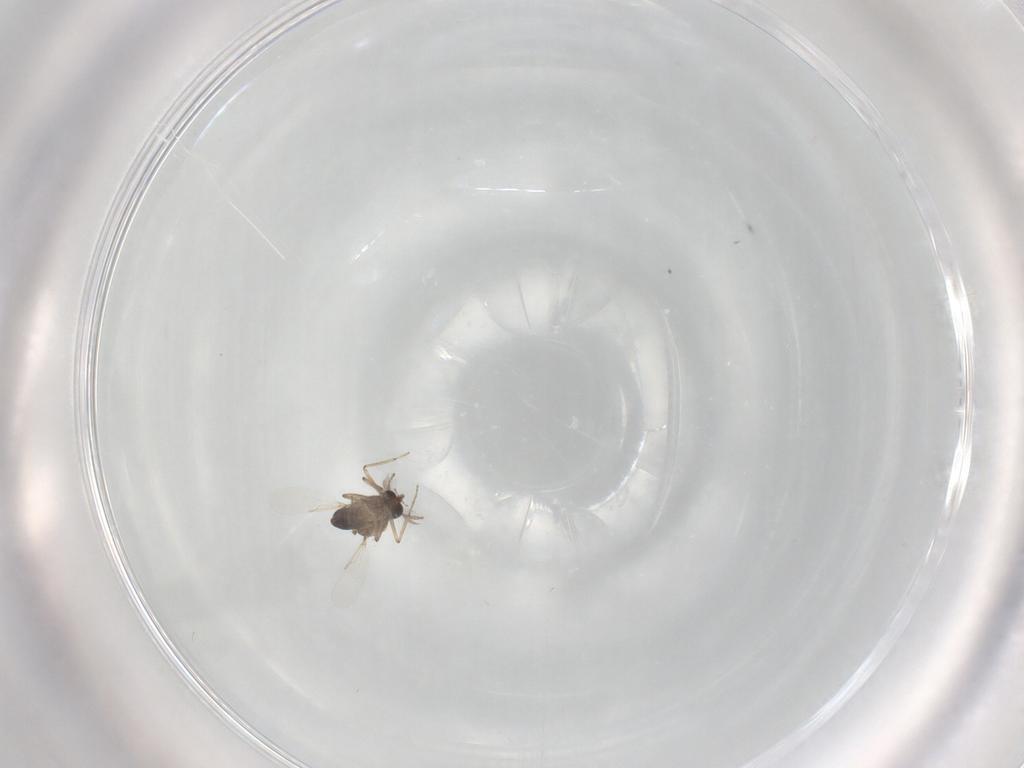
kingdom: Animalia
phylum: Arthropoda
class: Insecta
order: Diptera
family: Ceratopogonidae
